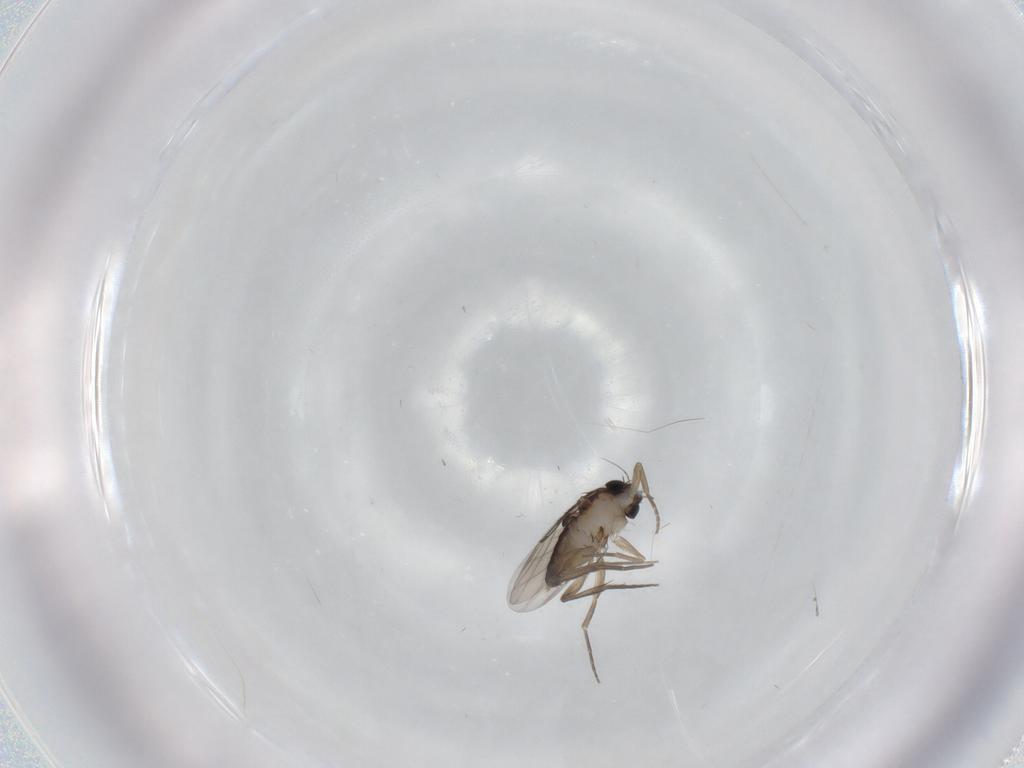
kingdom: Animalia
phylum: Arthropoda
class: Insecta
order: Diptera
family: Phoridae
